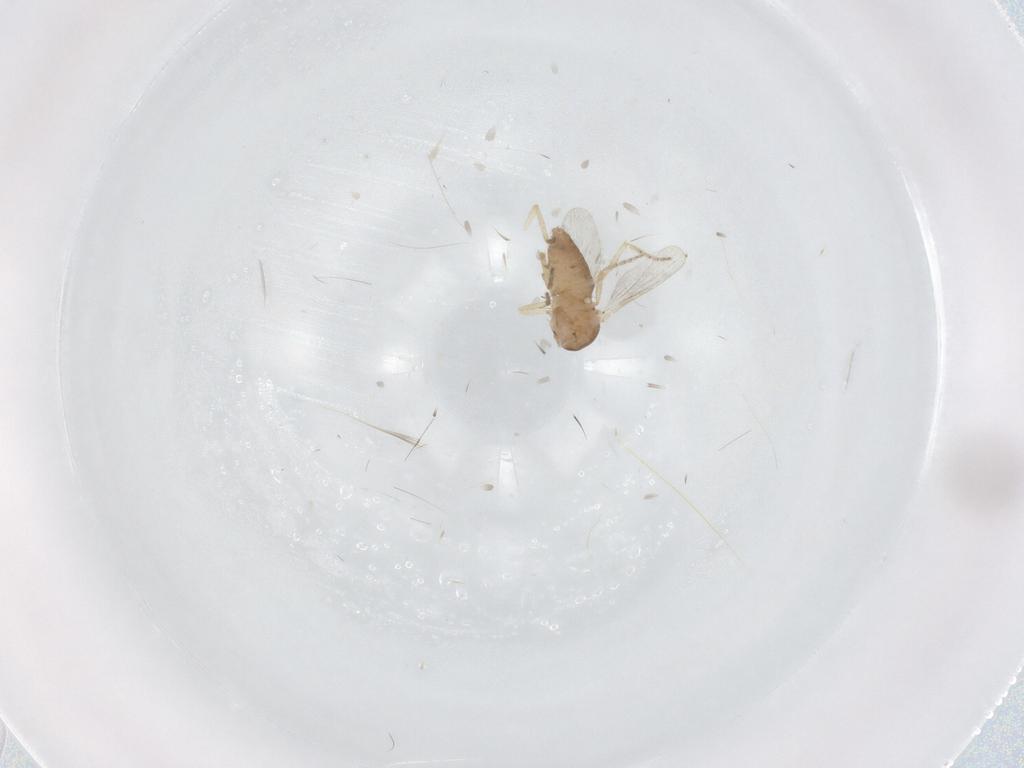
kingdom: Animalia
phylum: Arthropoda
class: Insecta
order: Diptera
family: Ceratopogonidae
